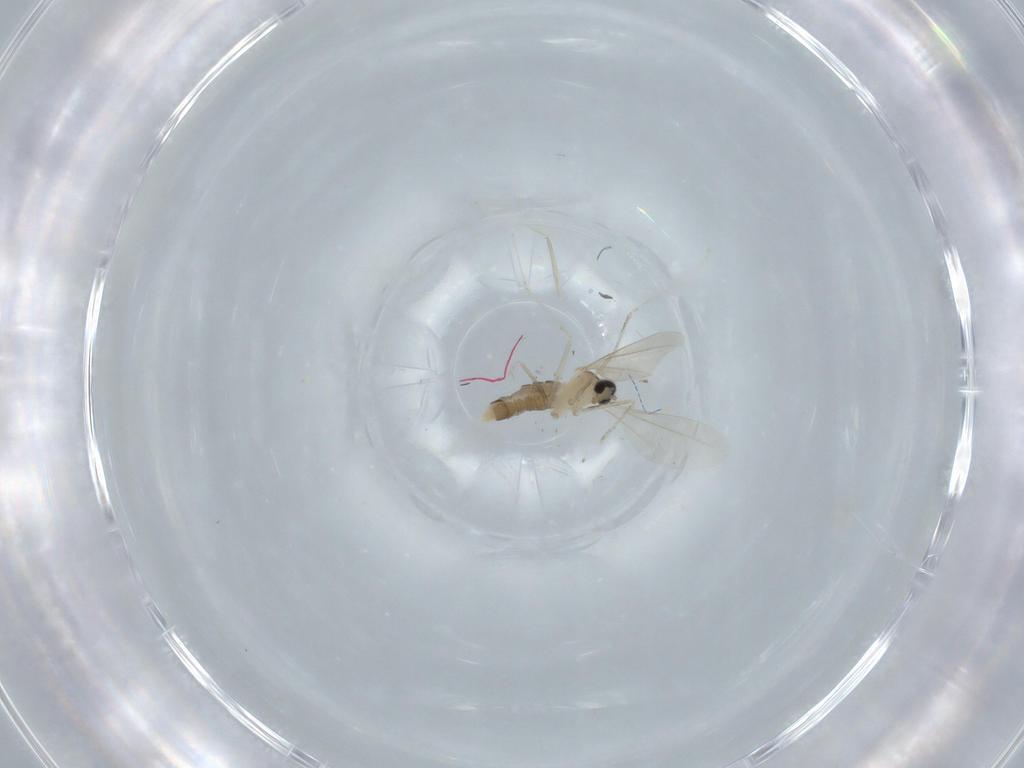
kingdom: Animalia
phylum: Arthropoda
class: Insecta
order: Diptera
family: Cecidomyiidae
